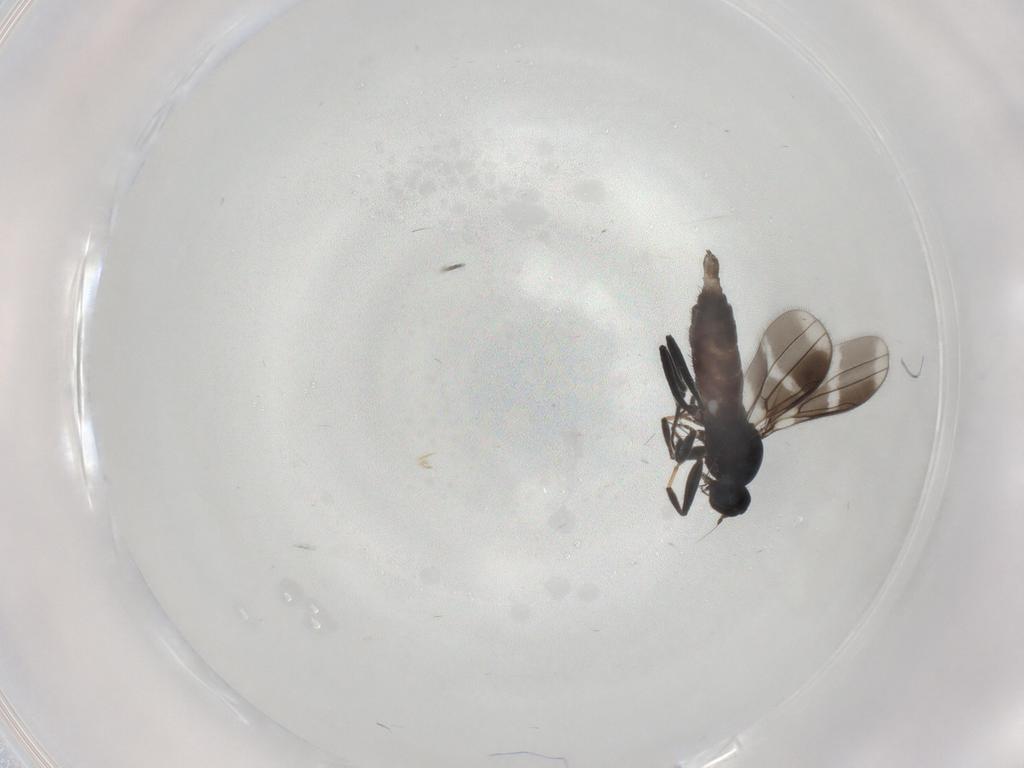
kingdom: Animalia
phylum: Arthropoda
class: Insecta
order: Diptera
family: Hybotidae
